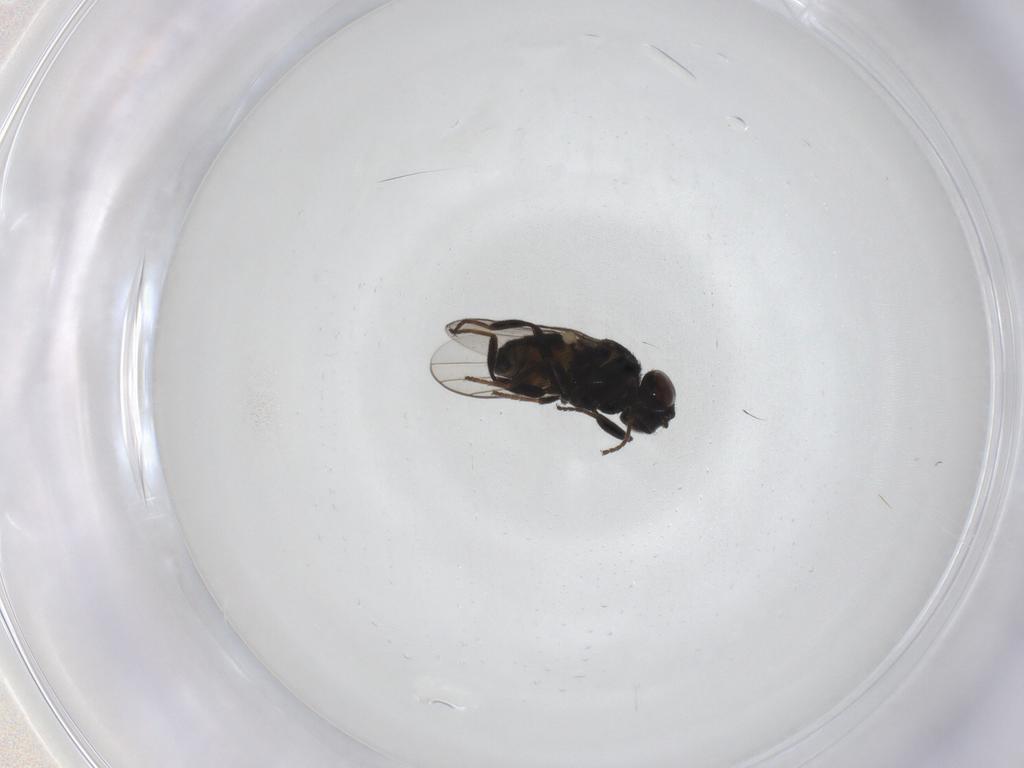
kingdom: Animalia
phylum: Arthropoda
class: Insecta
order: Diptera
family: Chloropidae
